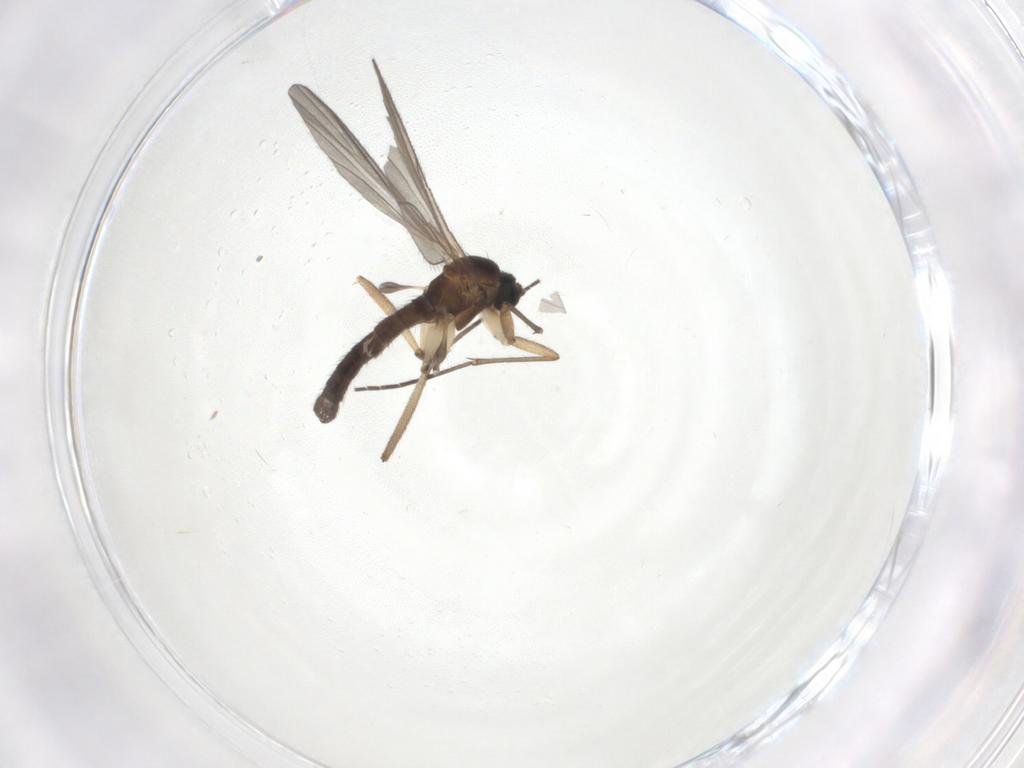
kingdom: Animalia
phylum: Arthropoda
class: Insecta
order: Diptera
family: Sciaridae
